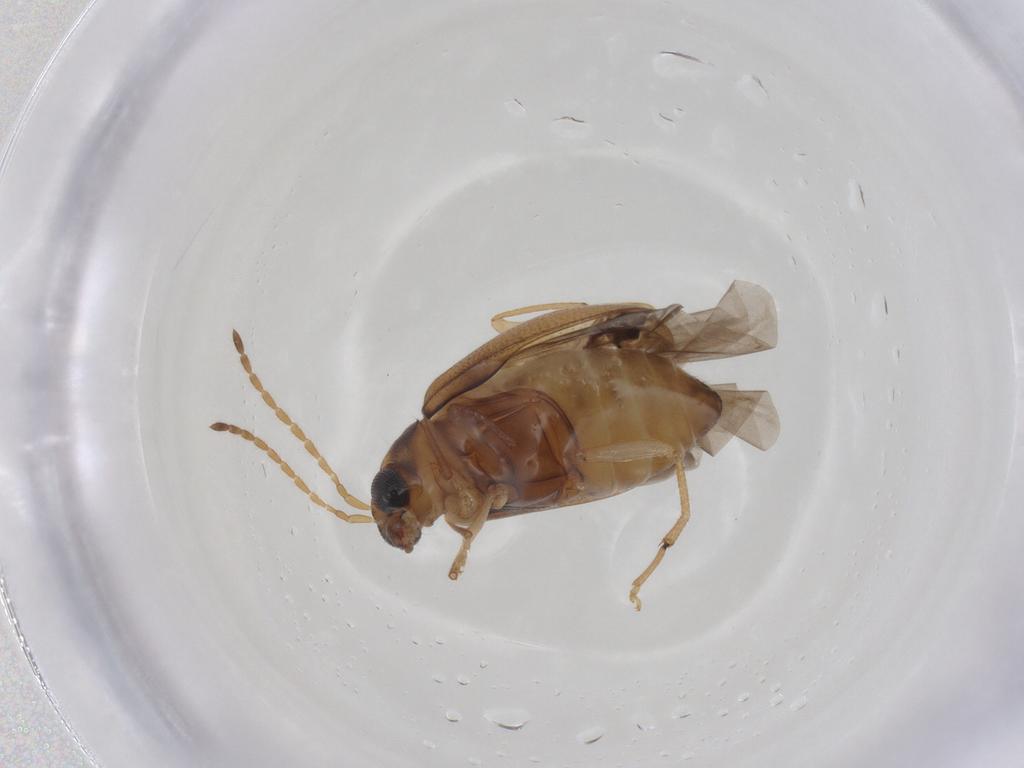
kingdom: Animalia
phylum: Arthropoda
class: Insecta
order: Coleoptera
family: Chrysomelidae
